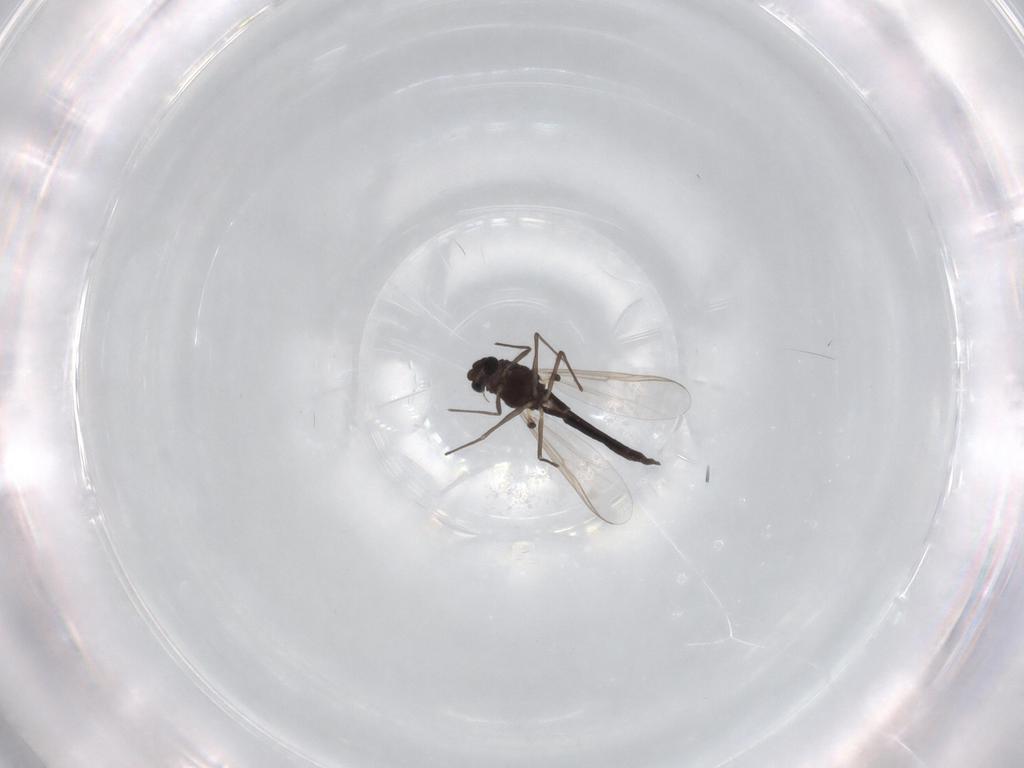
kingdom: Animalia
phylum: Arthropoda
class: Insecta
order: Diptera
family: Chironomidae
